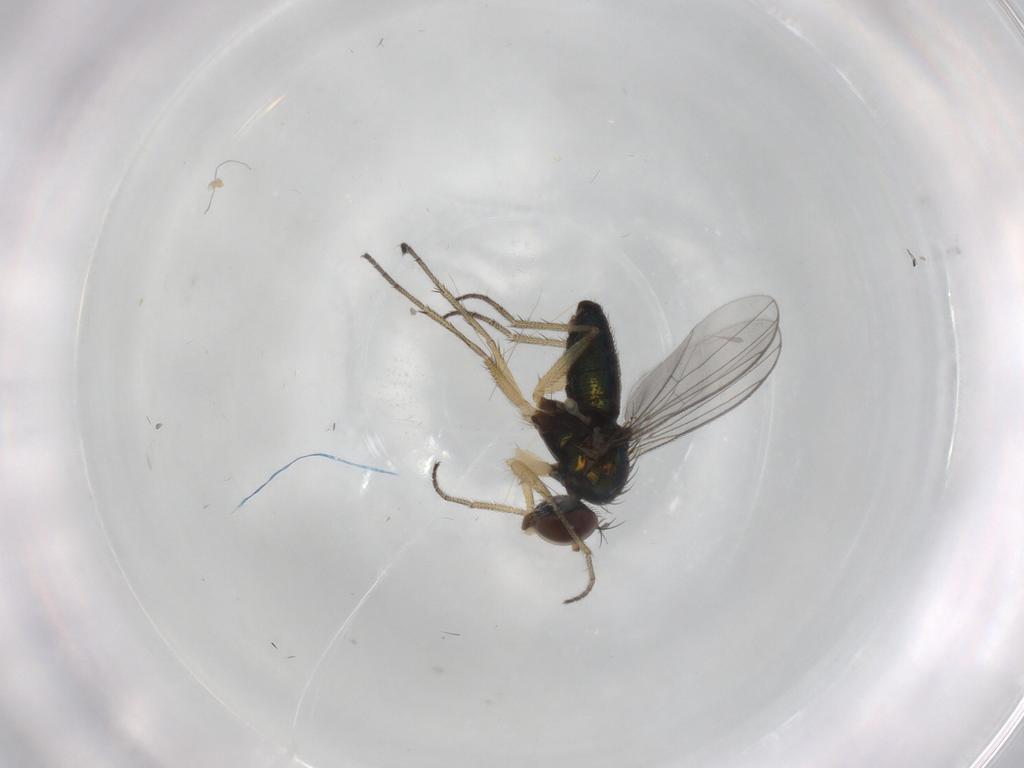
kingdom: Animalia
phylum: Arthropoda
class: Insecta
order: Diptera
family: Dolichopodidae
